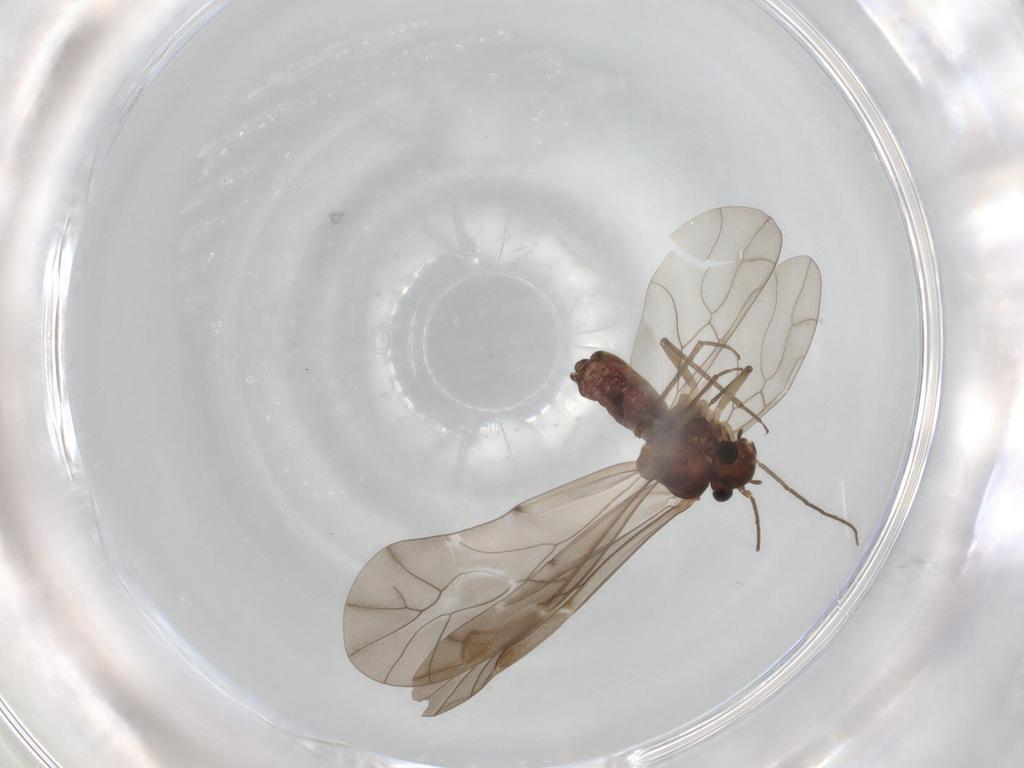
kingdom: Animalia
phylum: Arthropoda
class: Insecta
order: Psocodea
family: Peripsocidae
